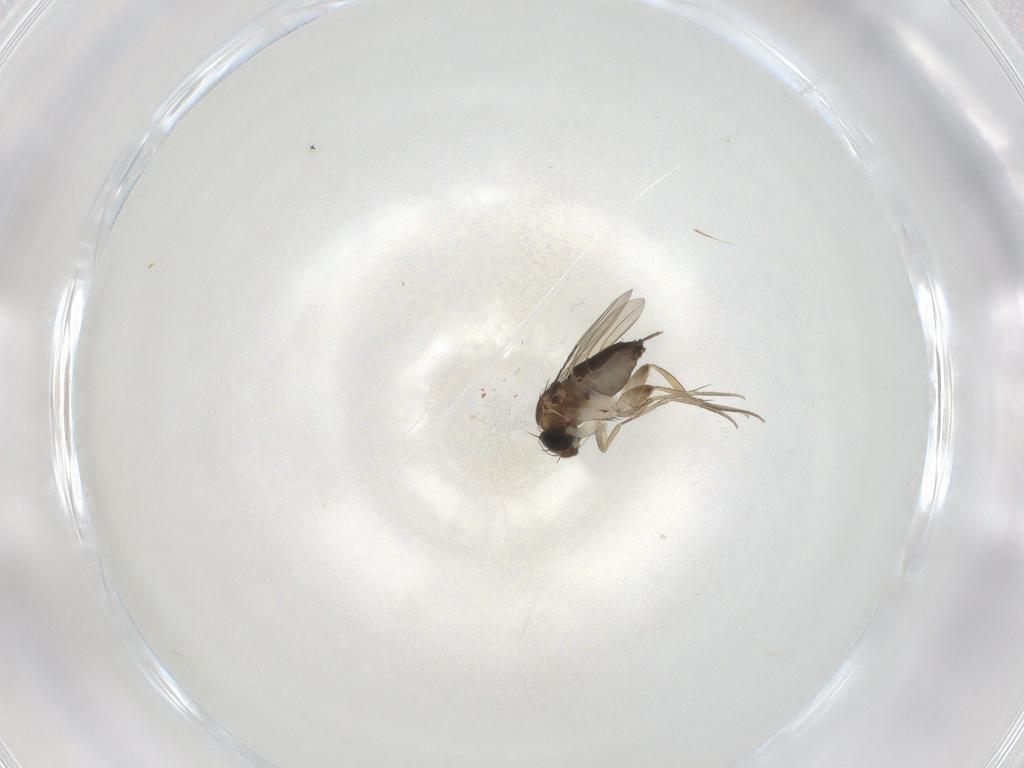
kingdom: Animalia
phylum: Arthropoda
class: Insecta
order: Diptera
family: Phoridae
